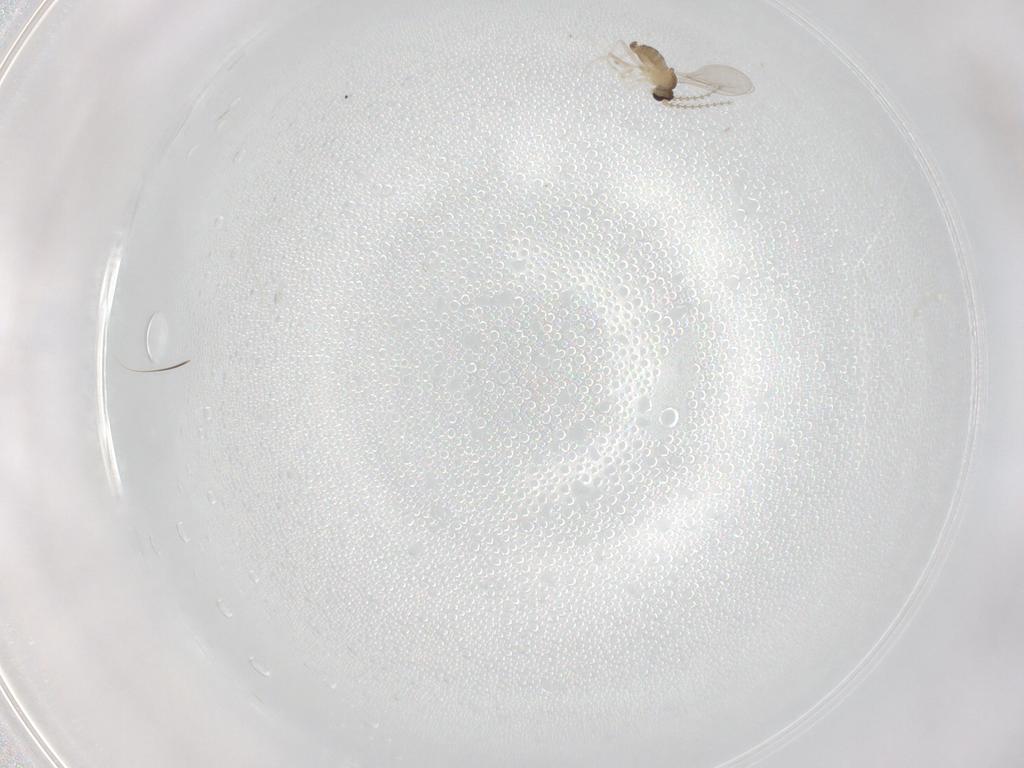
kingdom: Animalia
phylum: Arthropoda
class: Insecta
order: Diptera
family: Cecidomyiidae
